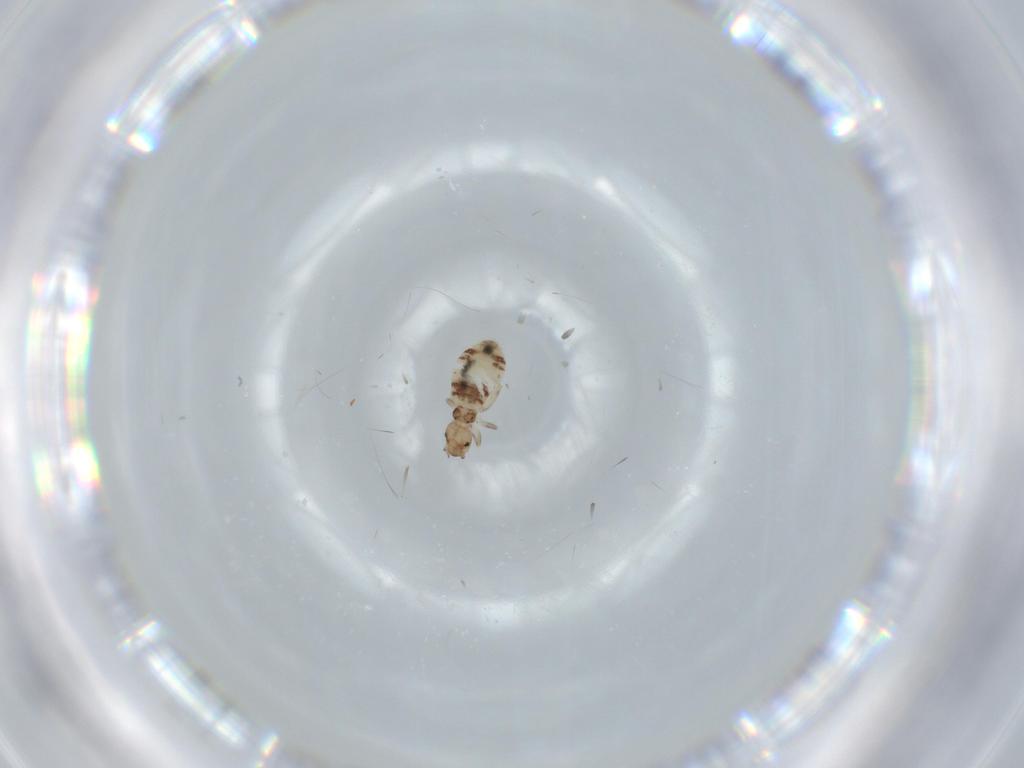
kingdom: Animalia
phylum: Arthropoda
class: Insecta
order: Psocodea
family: Liposcelididae
